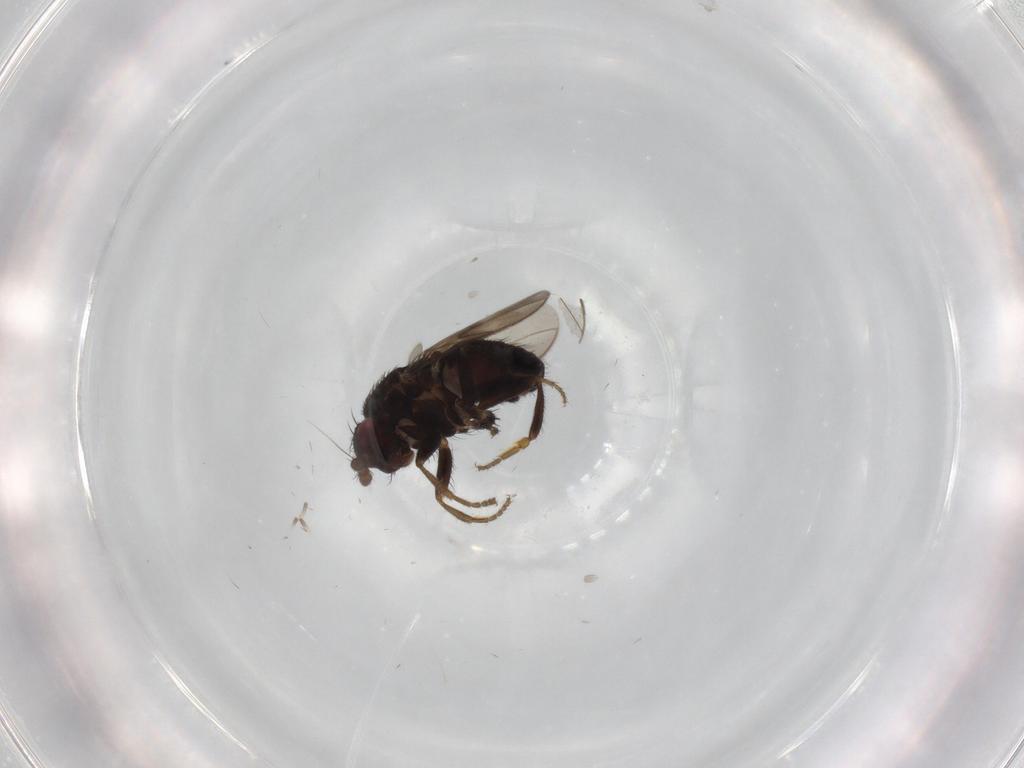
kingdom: Animalia
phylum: Arthropoda
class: Insecta
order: Diptera
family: Sphaeroceridae
